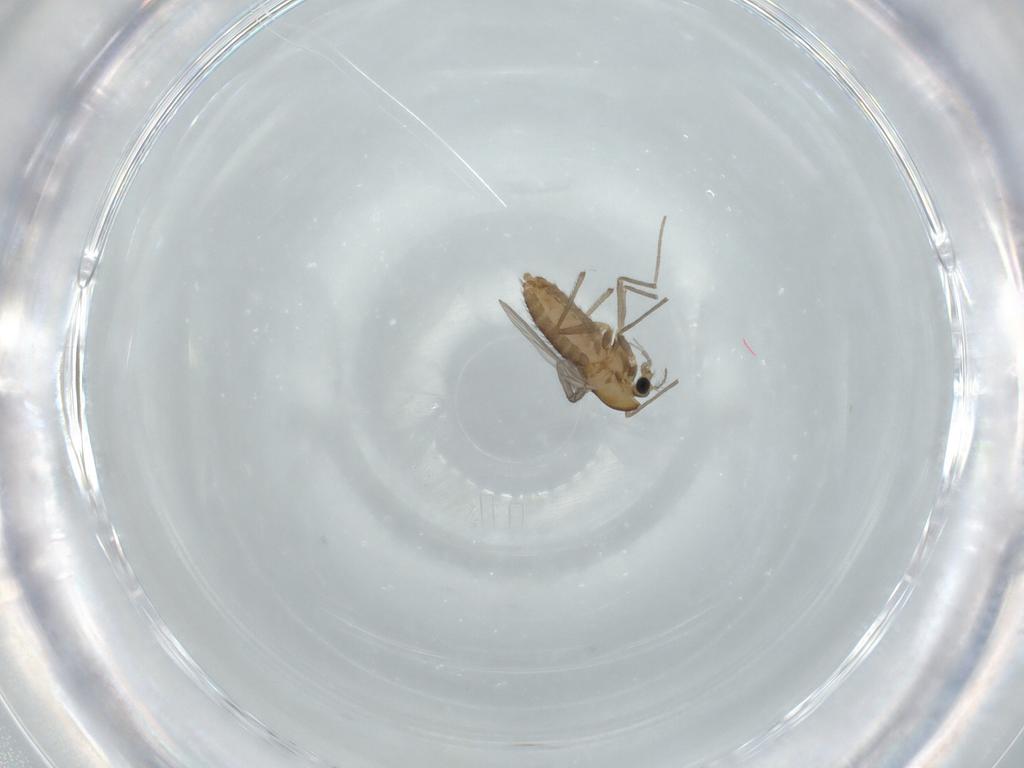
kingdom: Animalia
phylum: Arthropoda
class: Insecta
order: Diptera
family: Chironomidae
